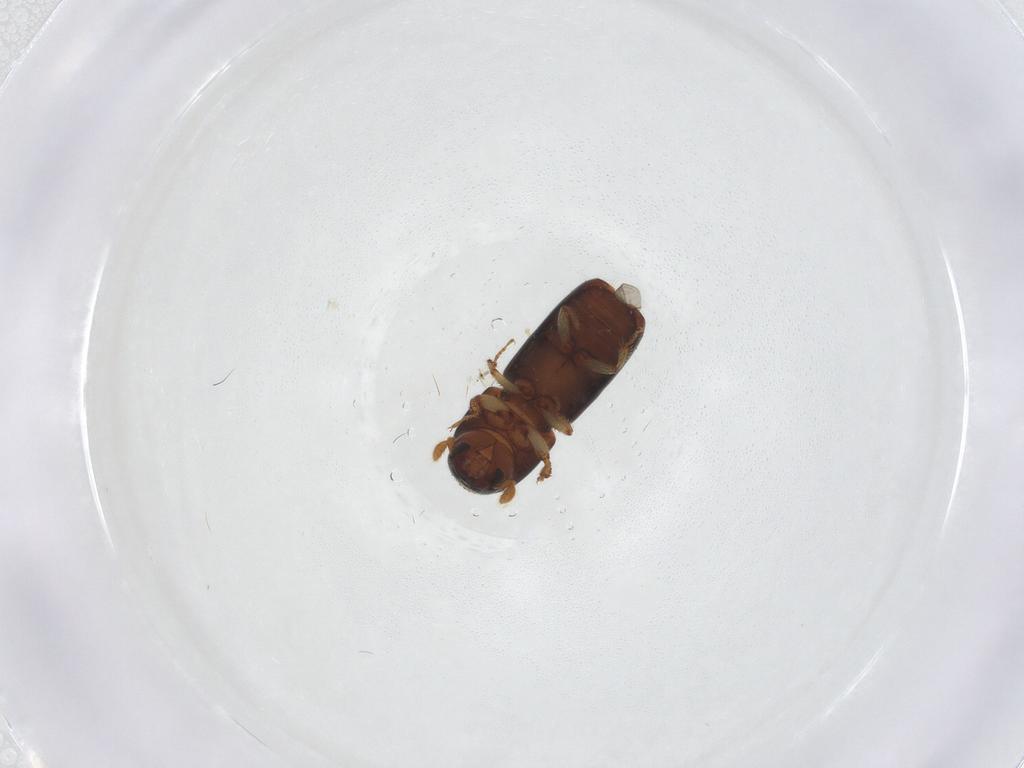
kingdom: Animalia
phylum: Arthropoda
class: Insecta
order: Coleoptera
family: Curculionidae
